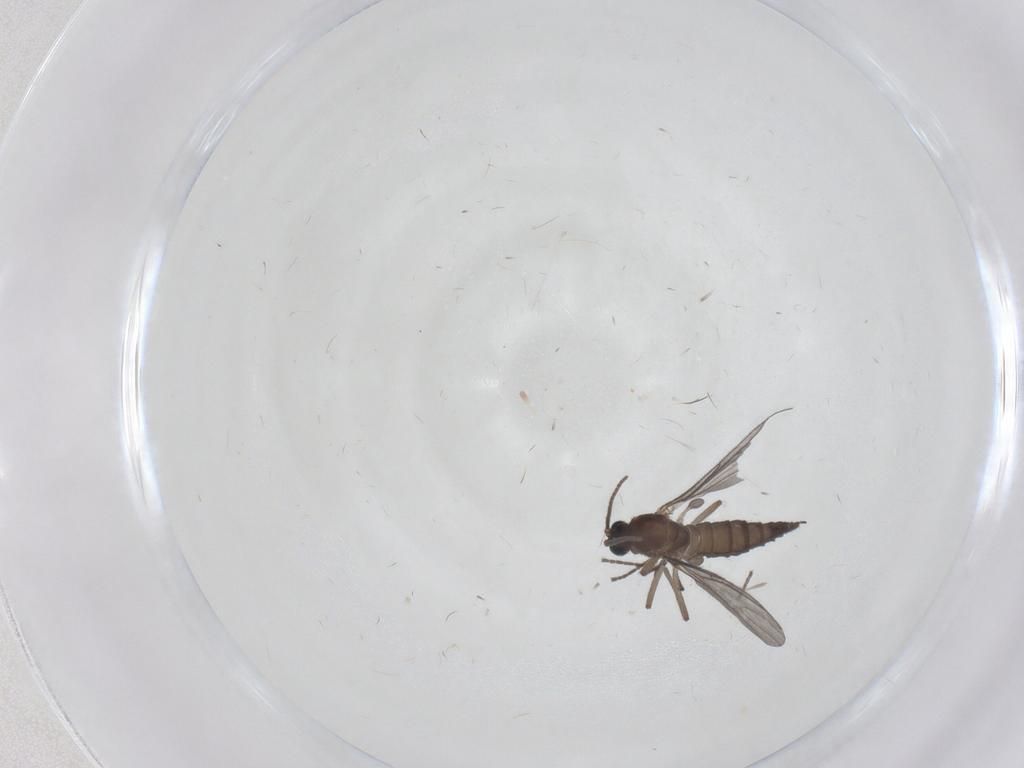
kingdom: Animalia
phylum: Arthropoda
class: Insecta
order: Diptera
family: Sciaridae
